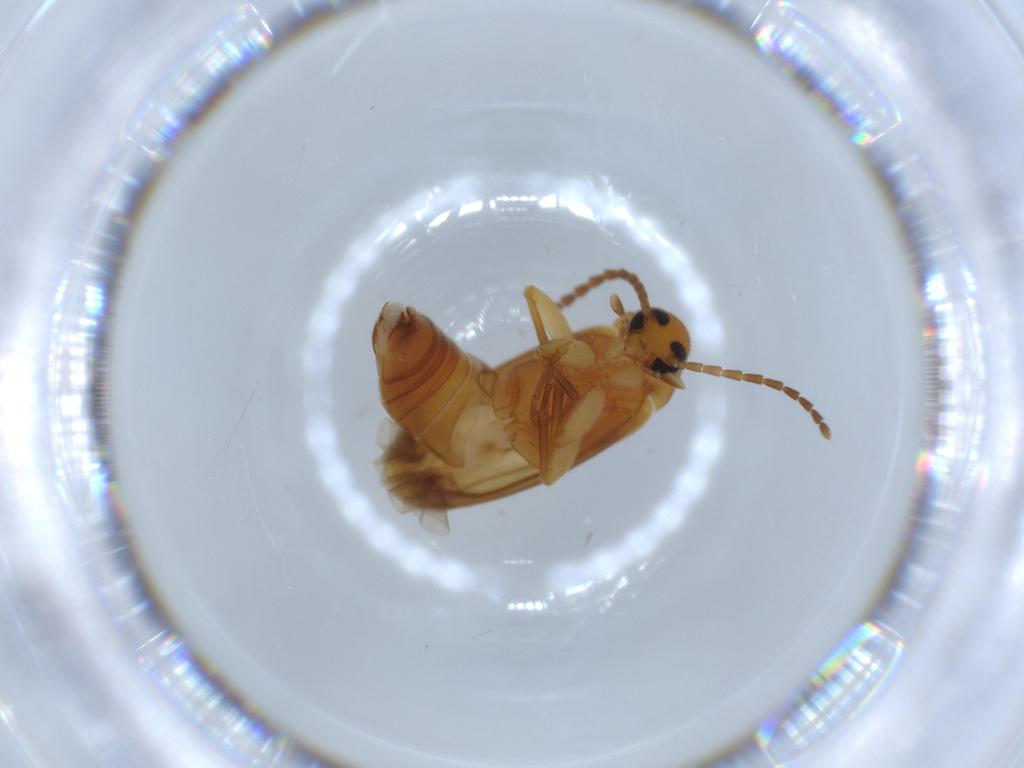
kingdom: Animalia
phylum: Arthropoda
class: Insecta
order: Coleoptera
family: Scraptiidae
